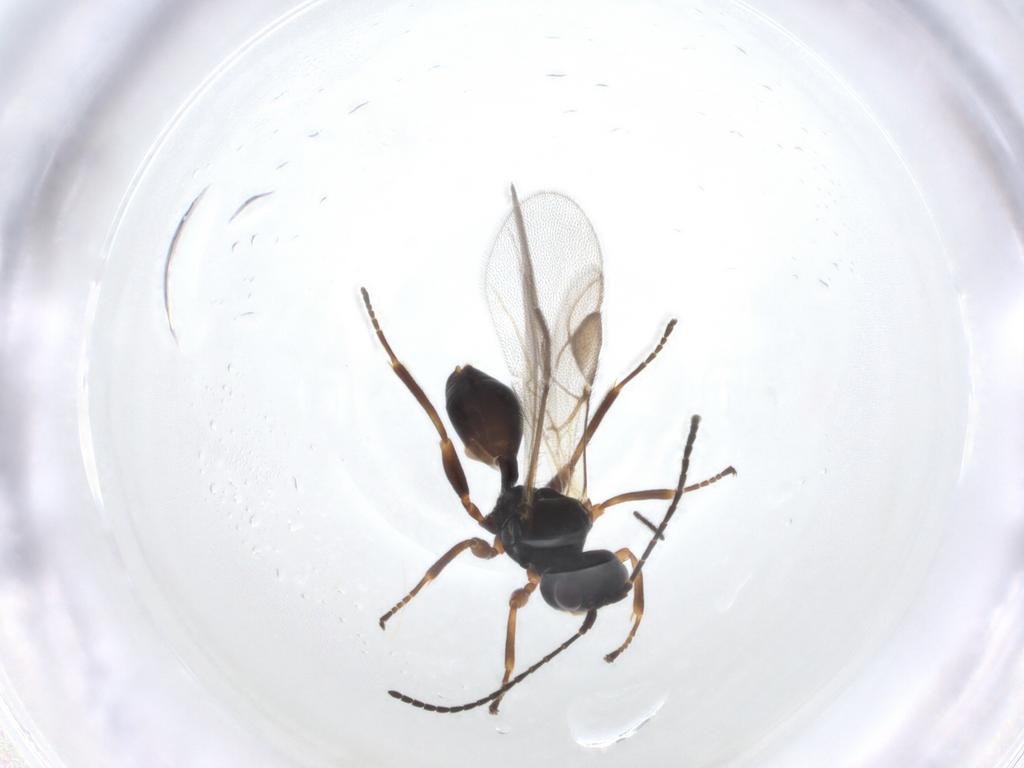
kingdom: Animalia
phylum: Arthropoda
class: Insecta
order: Hymenoptera
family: Braconidae
